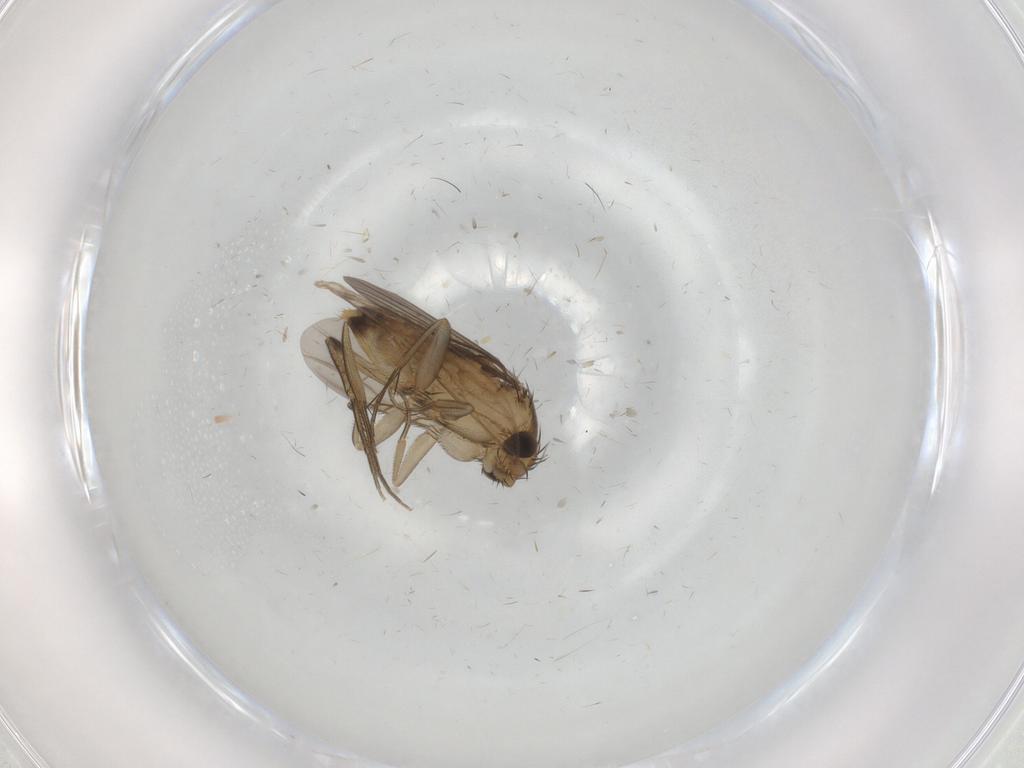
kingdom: Animalia
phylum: Arthropoda
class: Insecta
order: Diptera
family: Phoridae
